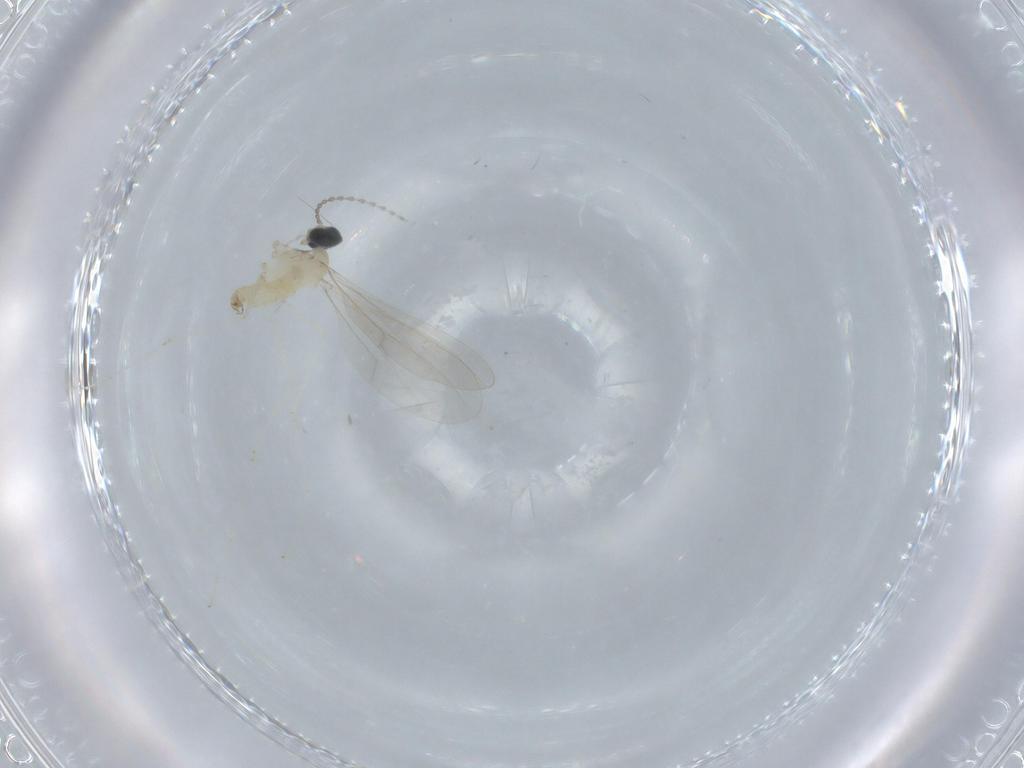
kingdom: Animalia
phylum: Arthropoda
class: Insecta
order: Diptera
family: Cecidomyiidae
